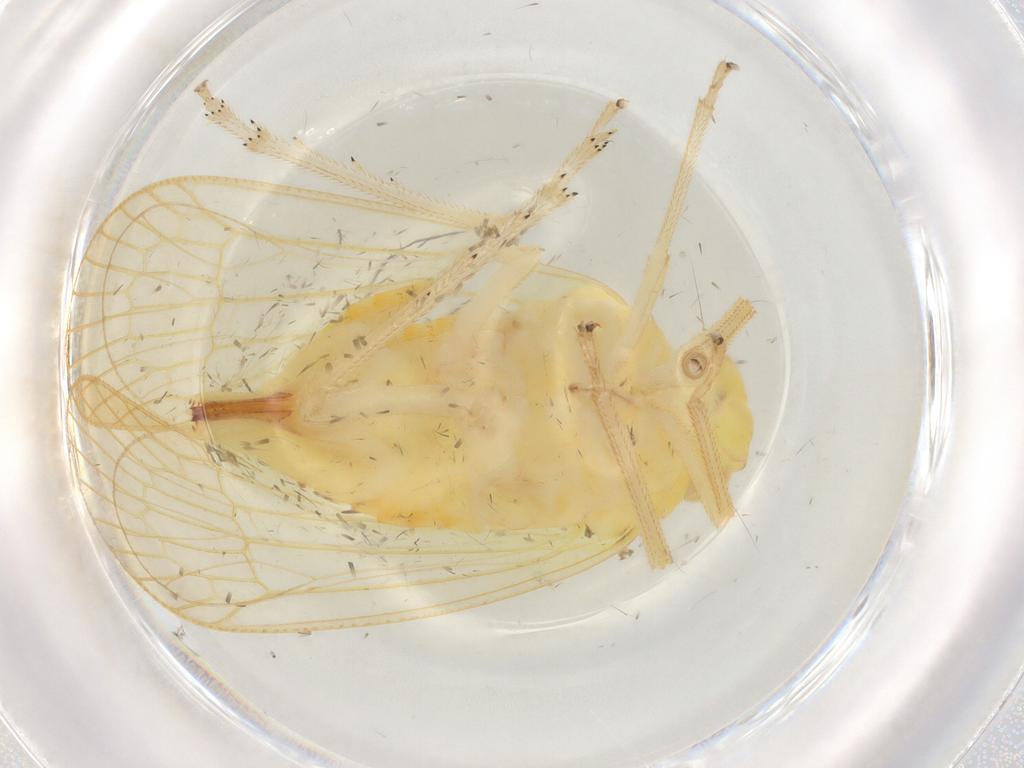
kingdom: Animalia
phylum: Arthropoda
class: Insecta
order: Hemiptera
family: Tropiduchidae
